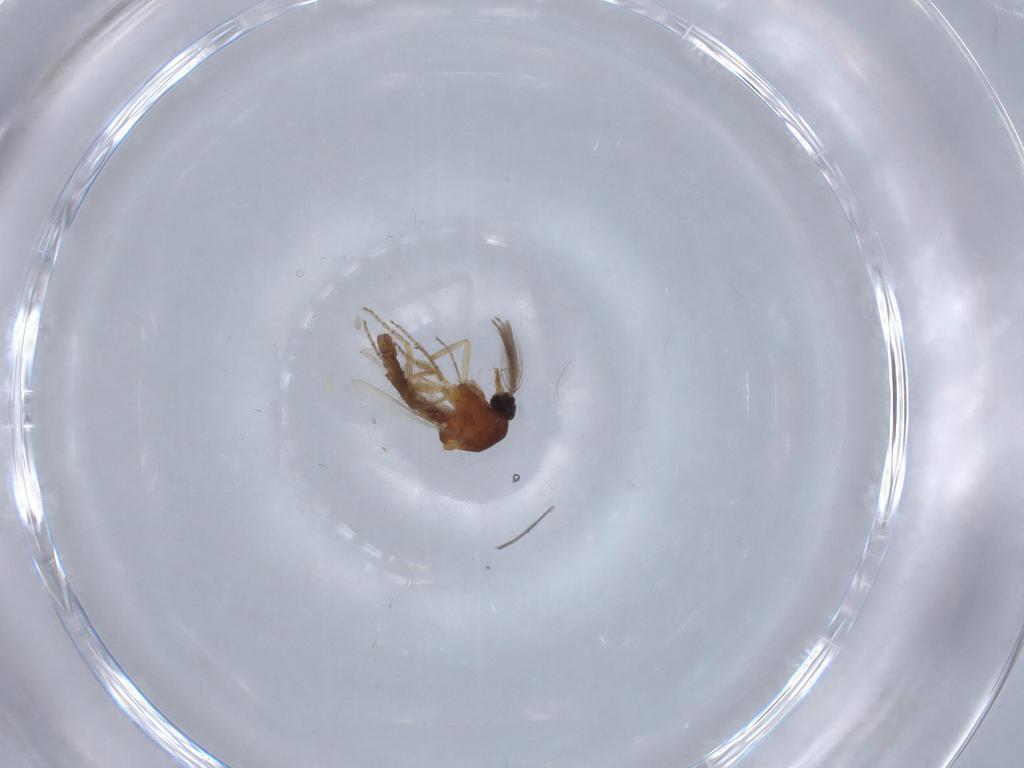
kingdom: Animalia
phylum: Arthropoda
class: Insecta
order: Diptera
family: Ceratopogonidae
